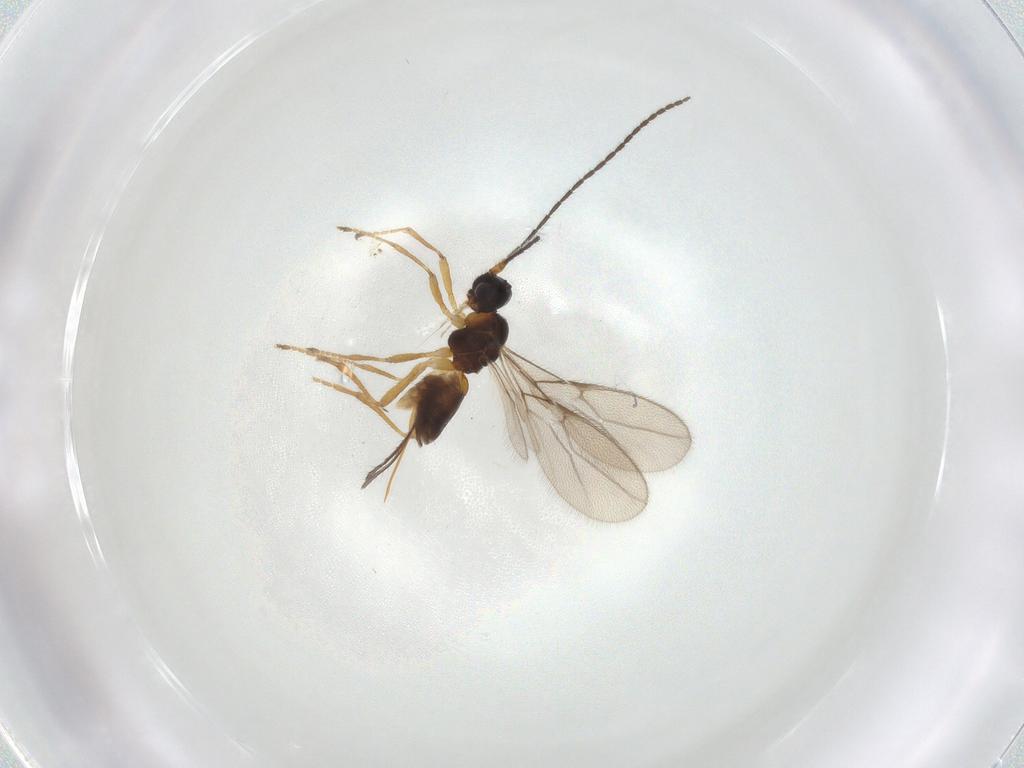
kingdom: Animalia
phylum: Arthropoda
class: Insecta
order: Hymenoptera
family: Braconidae
